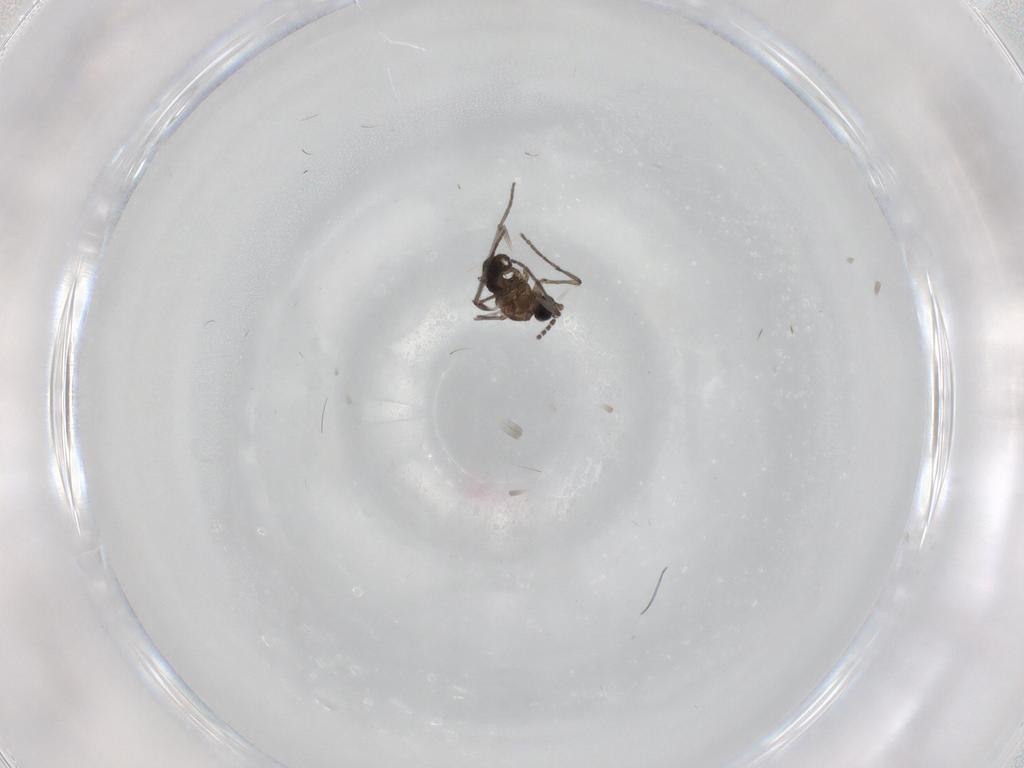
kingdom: Animalia
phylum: Arthropoda
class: Insecta
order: Diptera
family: Sciaridae
